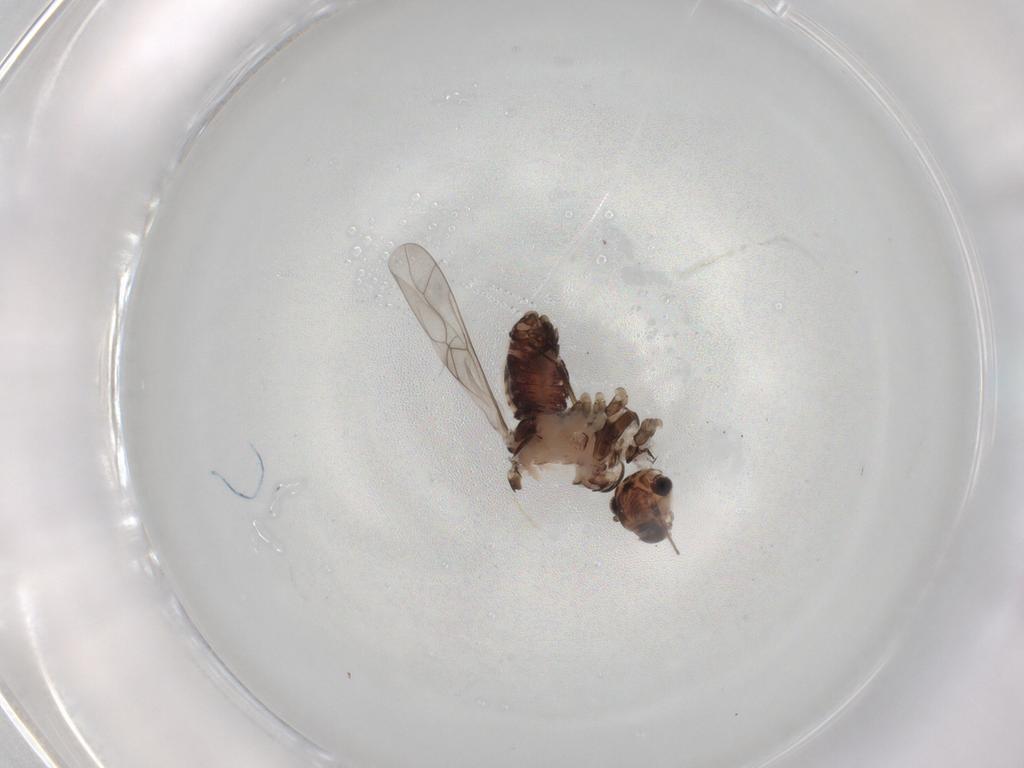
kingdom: Animalia
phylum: Arthropoda
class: Insecta
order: Psocodea
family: Peripsocidae
